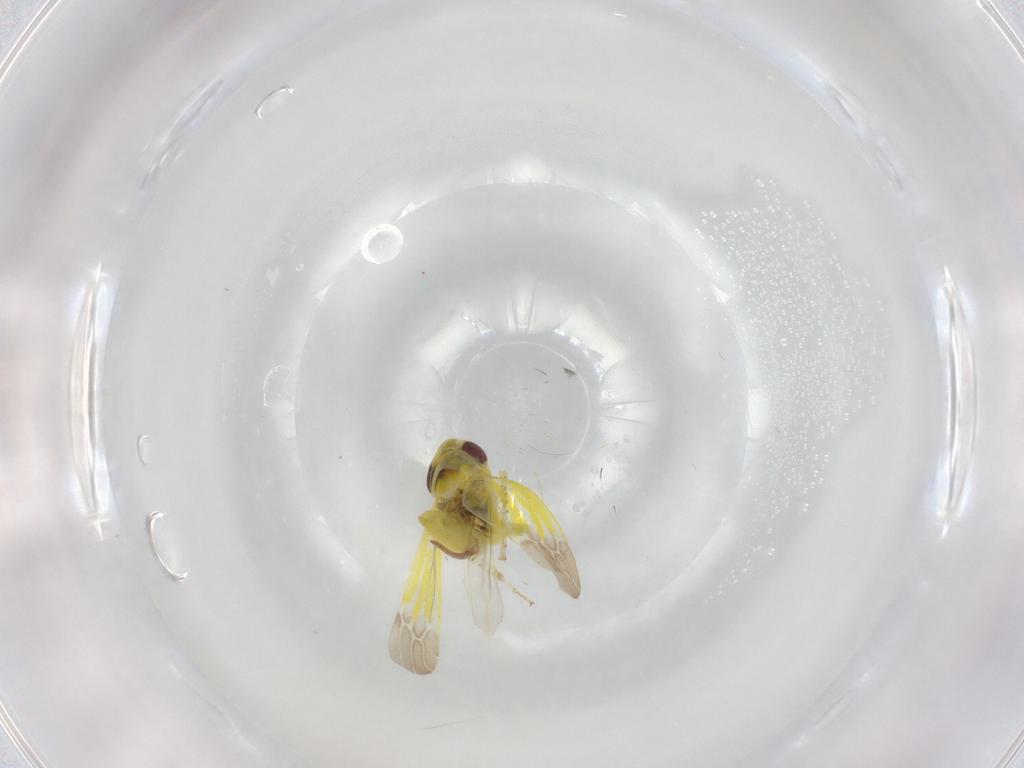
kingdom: Animalia
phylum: Arthropoda
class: Insecta
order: Hemiptera
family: Cicadellidae
